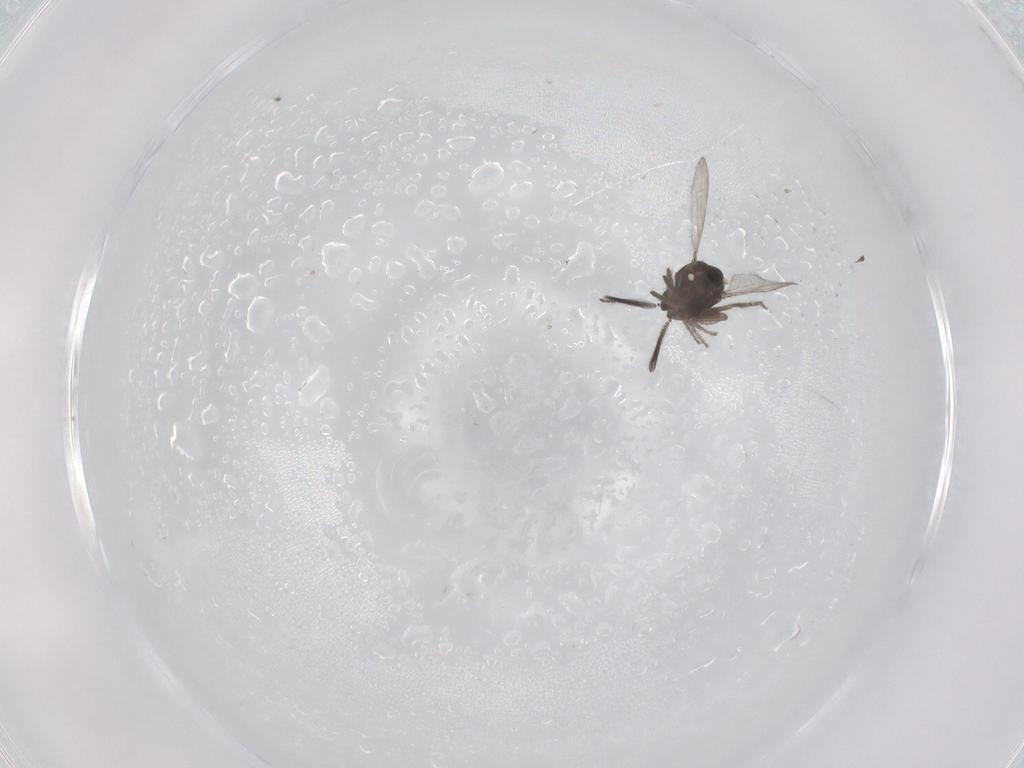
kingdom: Animalia
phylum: Arthropoda
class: Insecta
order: Diptera
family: Ceratopogonidae
